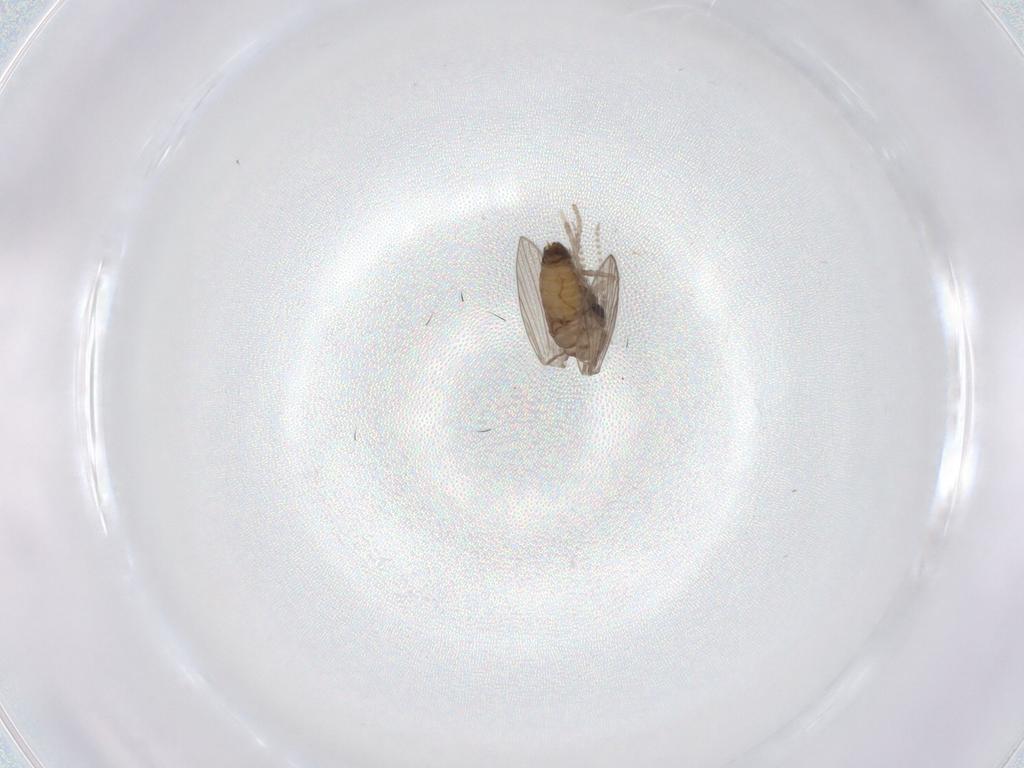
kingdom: Animalia
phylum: Arthropoda
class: Insecta
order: Diptera
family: Psychodidae
